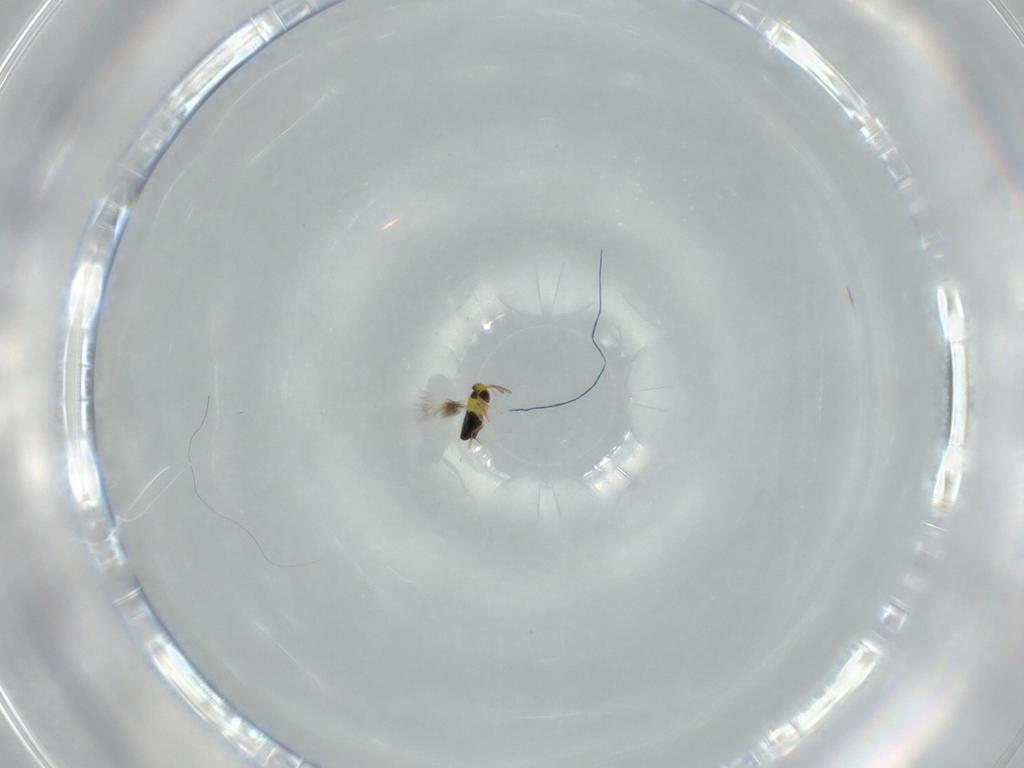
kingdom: Animalia
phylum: Arthropoda
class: Insecta
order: Hymenoptera
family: Signiphoridae
